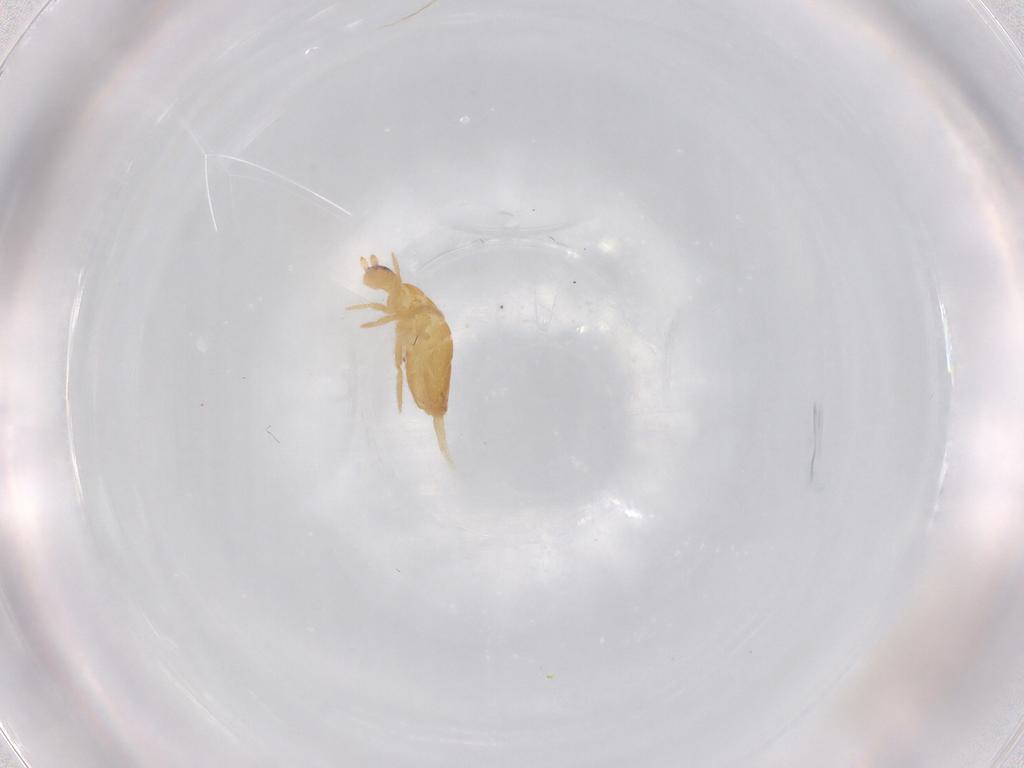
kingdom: Animalia
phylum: Arthropoda
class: Collembola
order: Entomobryomorpha
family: Entomobryidae
